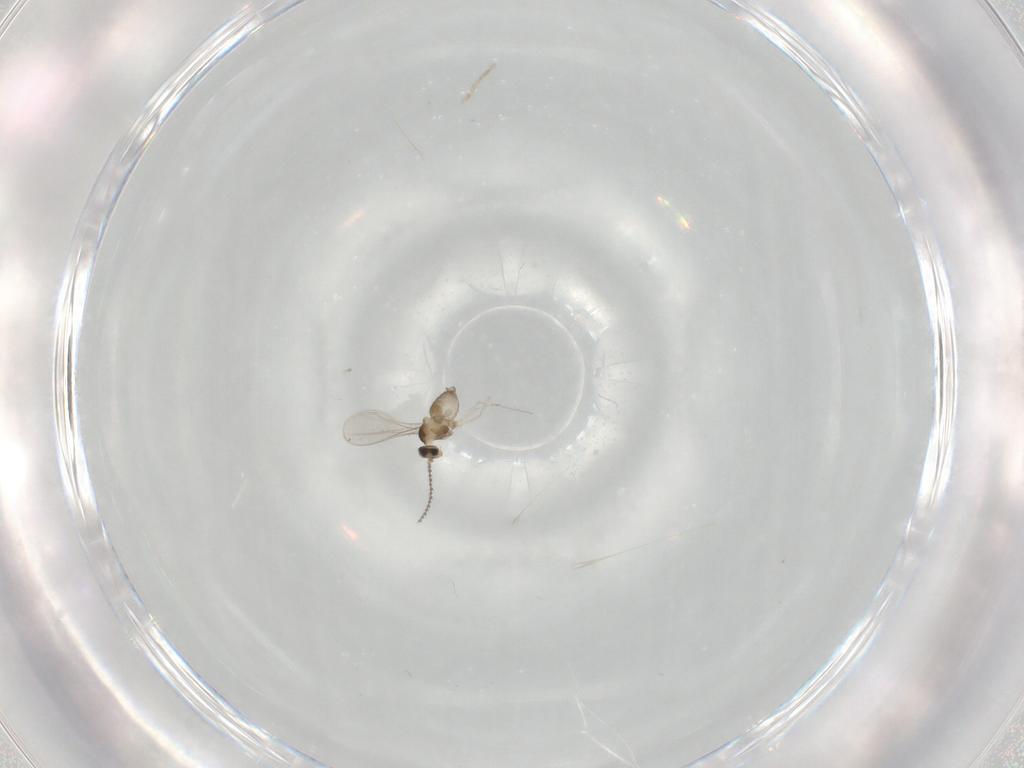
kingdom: Animalia
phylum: Arthropoda
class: Insecta
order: Diptera
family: Cecidomyiidae
